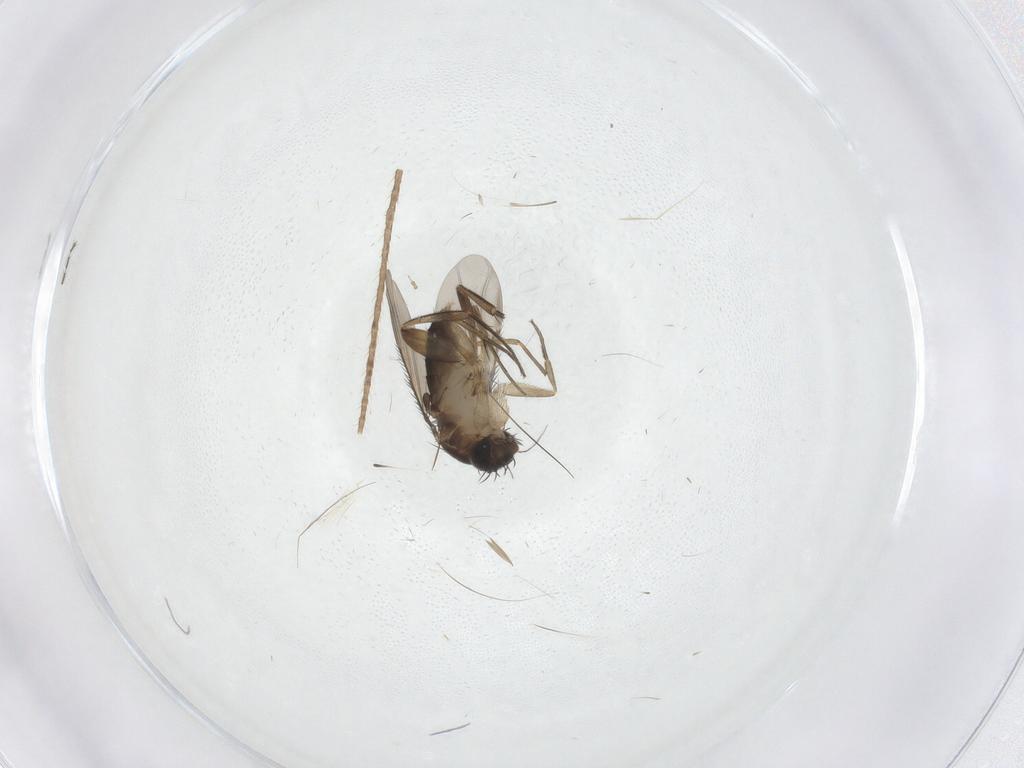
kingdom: Animalia
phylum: Arthropoda
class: Insecta
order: Diptera
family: Phoridae
